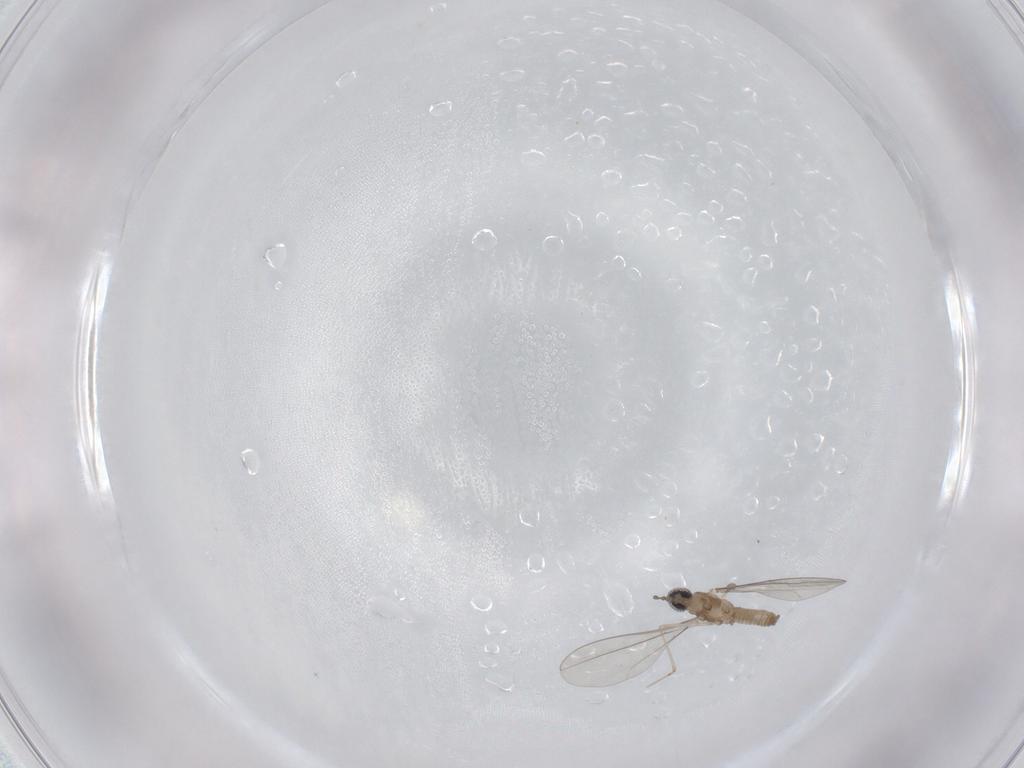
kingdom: Animalia
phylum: Arthropoda
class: Insecta
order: Diptera
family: Cecidomyiidae
